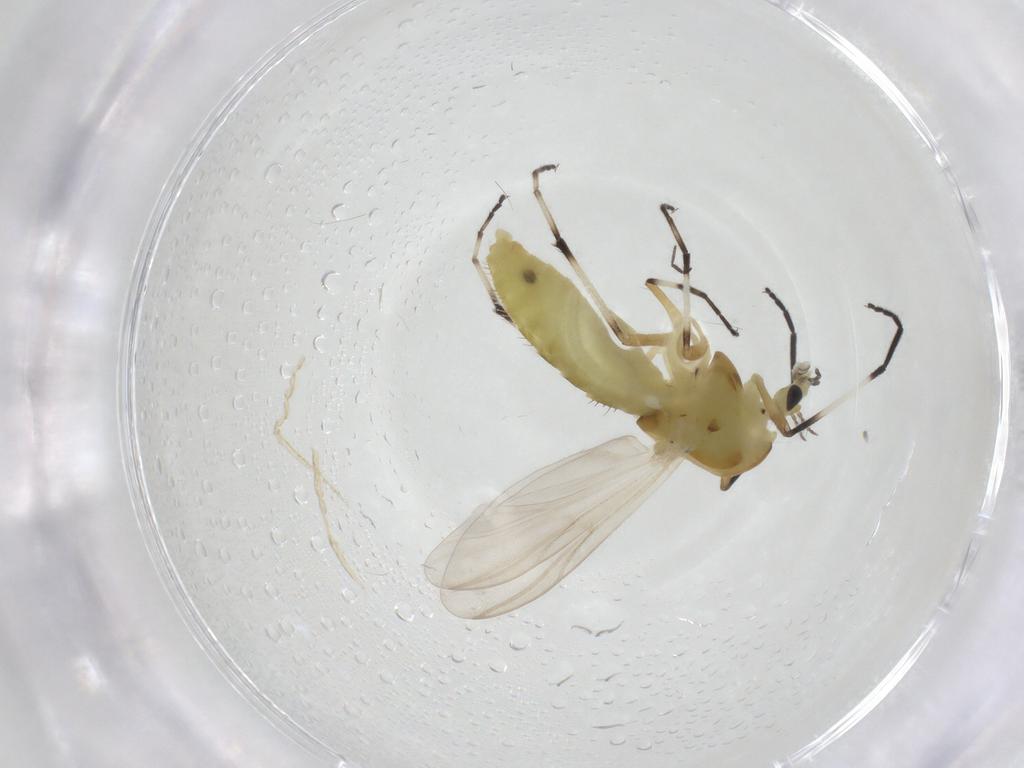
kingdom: Animalia
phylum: Arthropoda
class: Insecta
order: Diptera
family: Chironomidae
